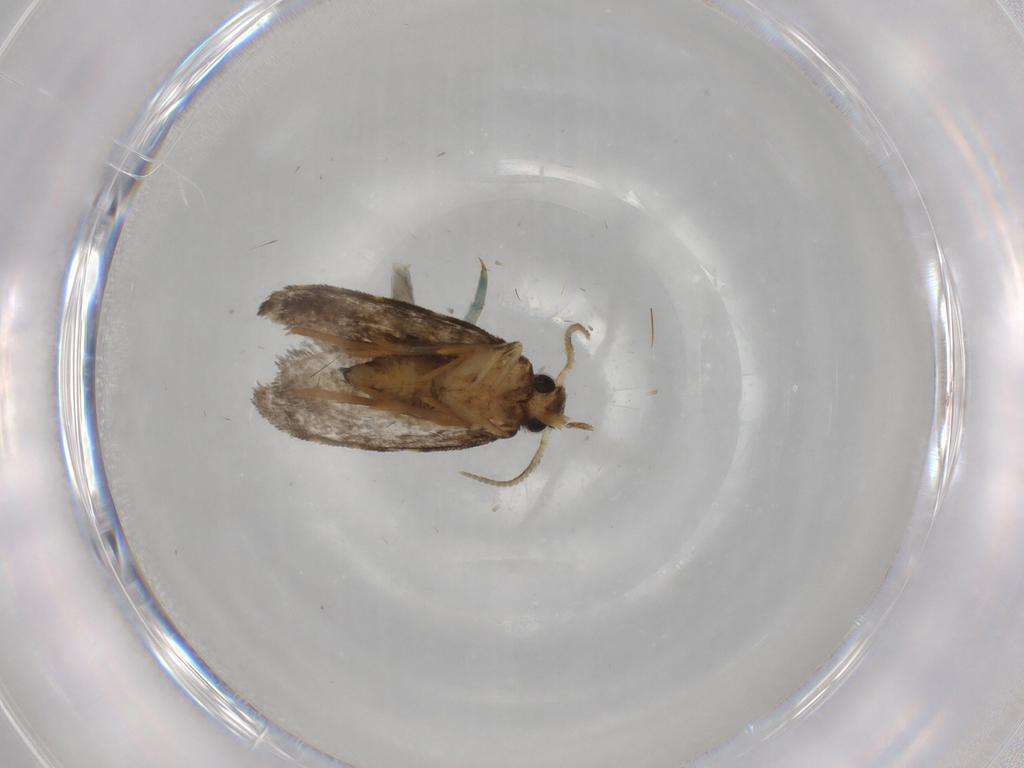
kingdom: Animalia
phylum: Arthropoda
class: Insecta
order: Lepidoptera
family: Psychidae
